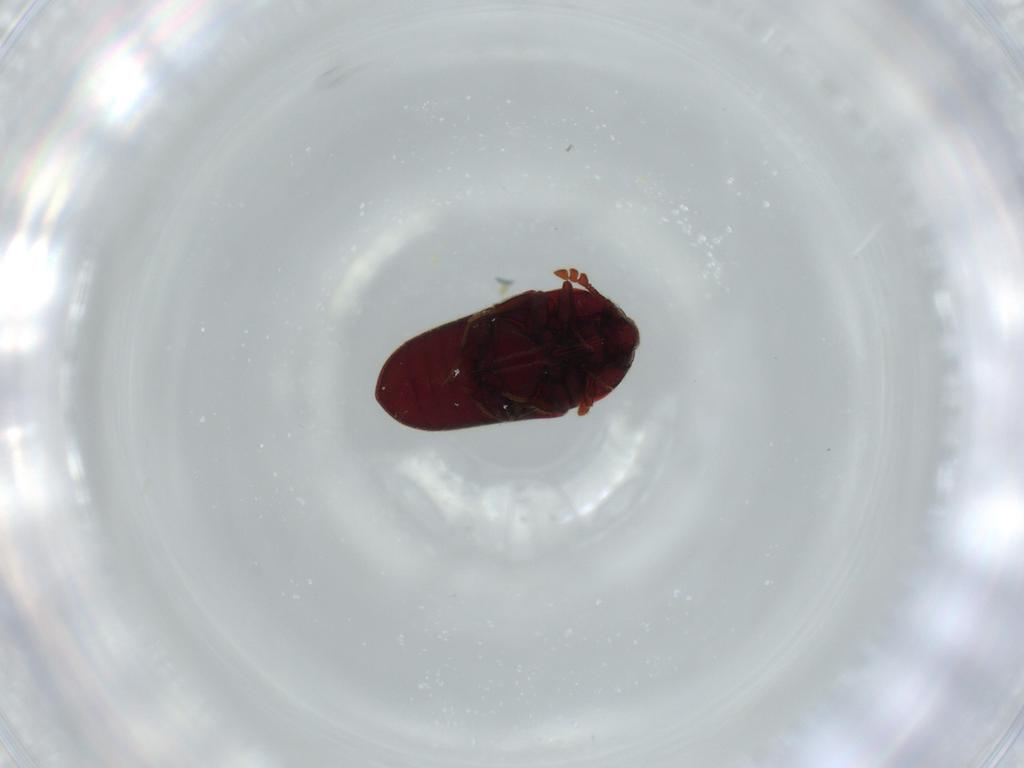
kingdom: Animalia
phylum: Arthropoda
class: Insecta
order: Coleoptera
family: Throscidae
